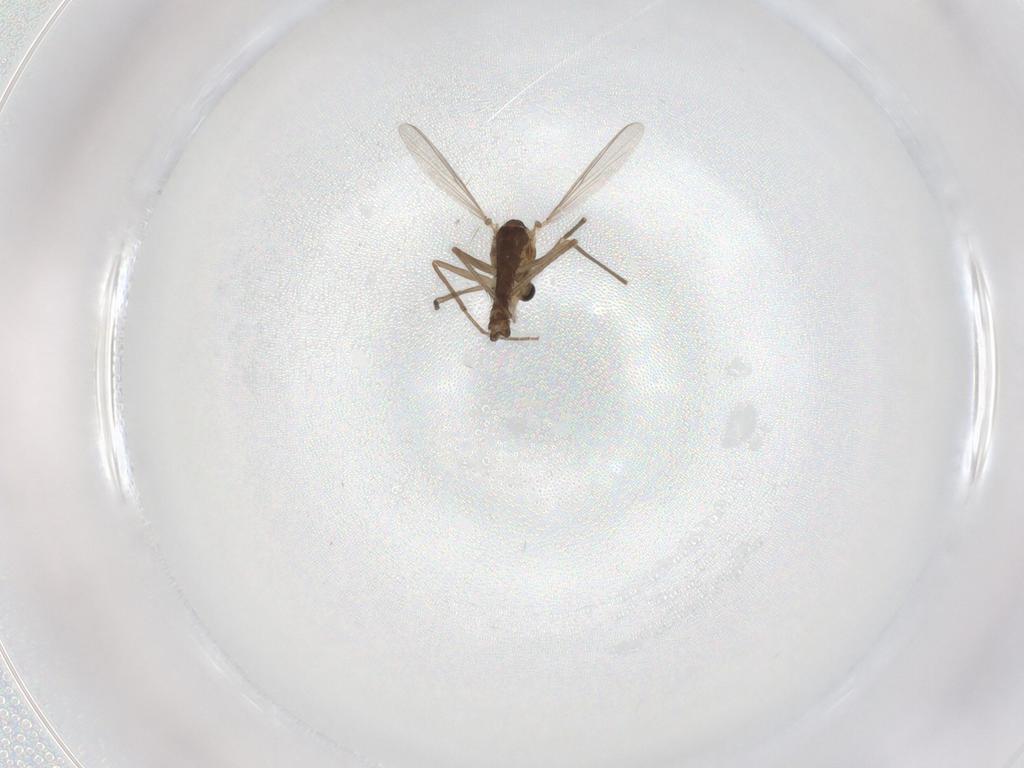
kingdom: Animalia
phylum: Arthropoda
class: Insecta
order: Diptera
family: Chironomidae
